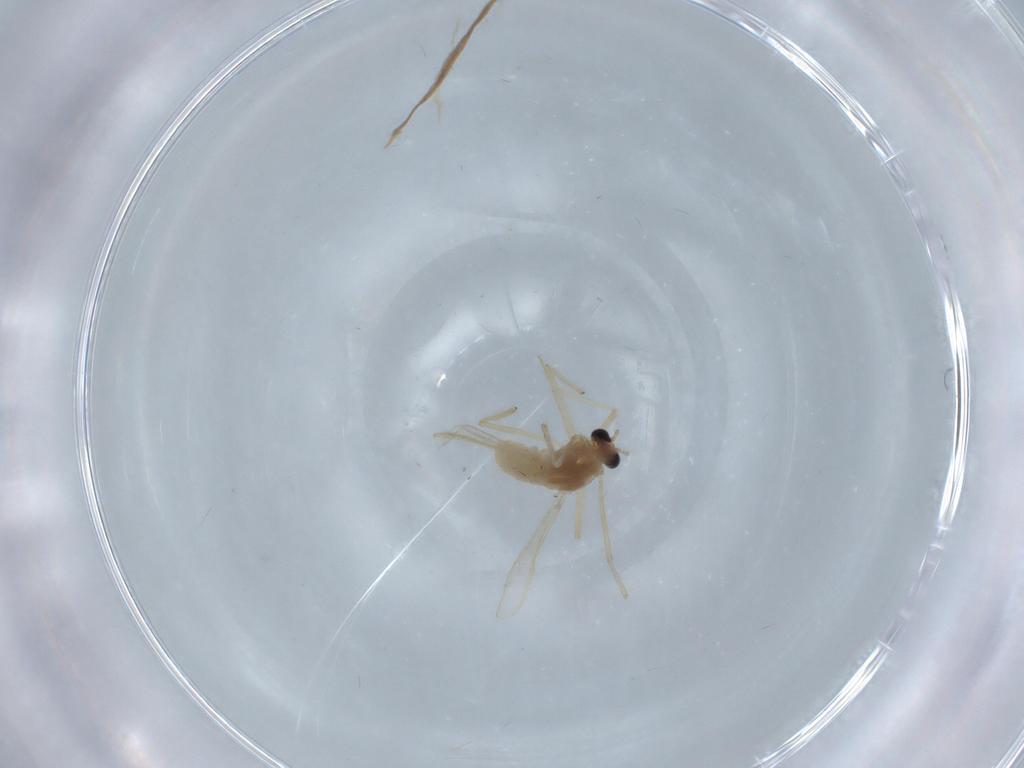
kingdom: Animalia
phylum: Arthropoda
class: Insecta
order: Diptera
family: Chironomidae
